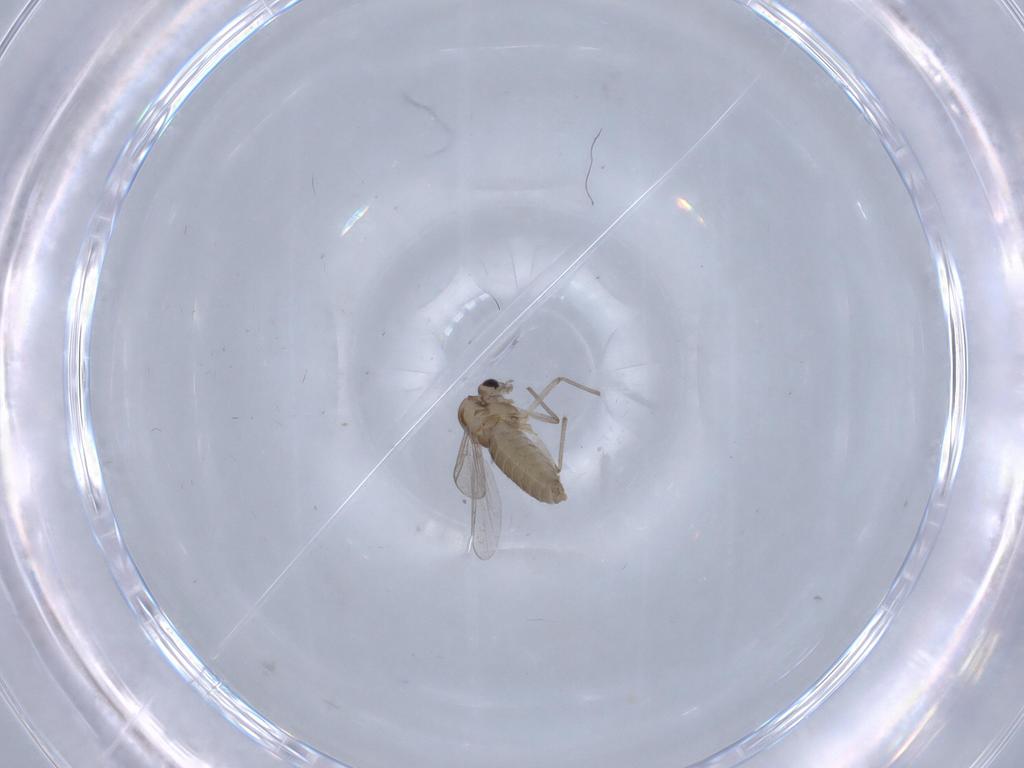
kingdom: Animalia
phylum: Arthropoda
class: Insecta
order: Diptera
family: Chironomidae
